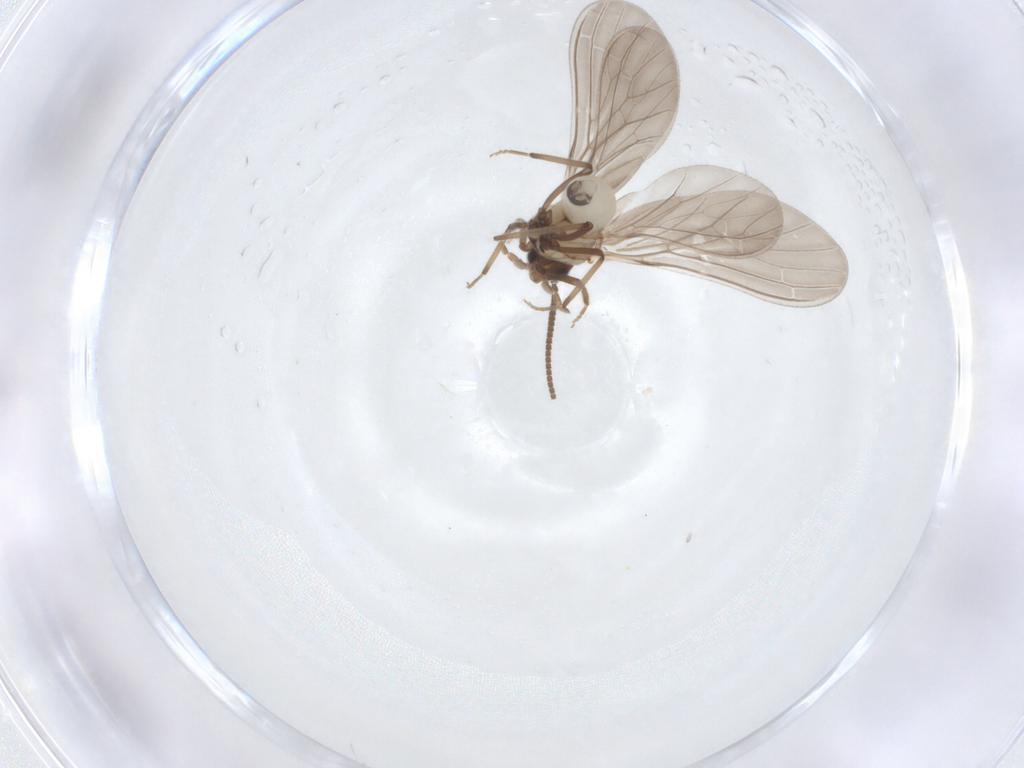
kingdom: Animalia
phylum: Arthropoda
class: Insecta
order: Neuroptera
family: Coniopterygidae
